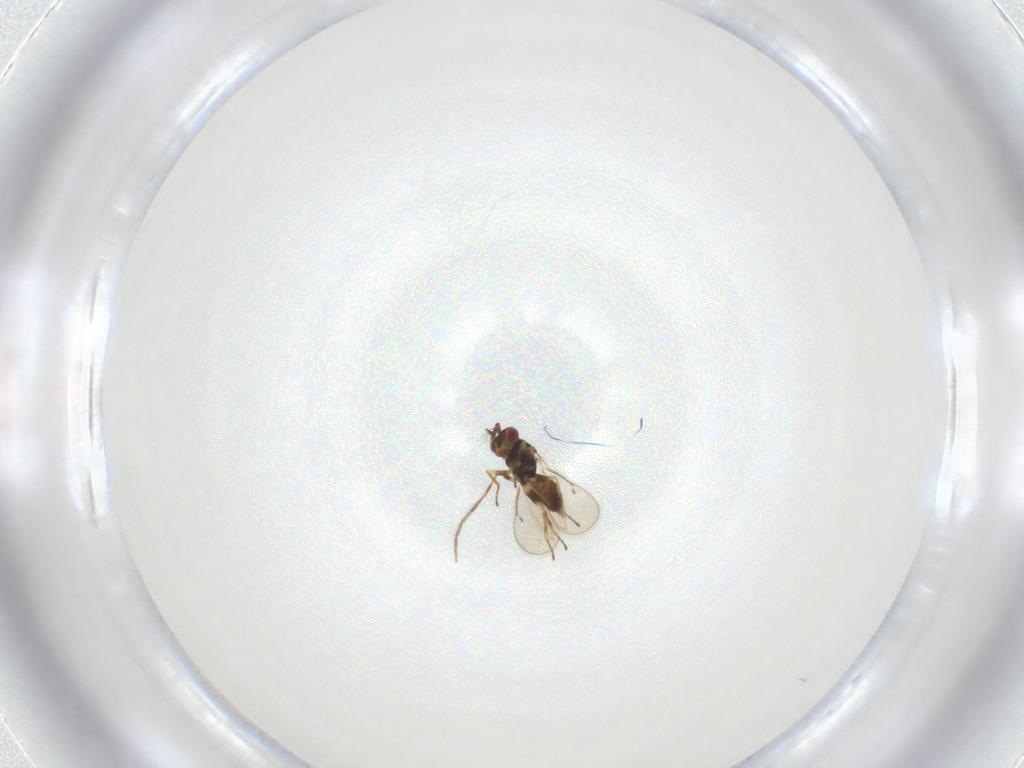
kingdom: Animalia
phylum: Arthropoda
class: Insecta
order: Hymenoptera
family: Eulophidae
